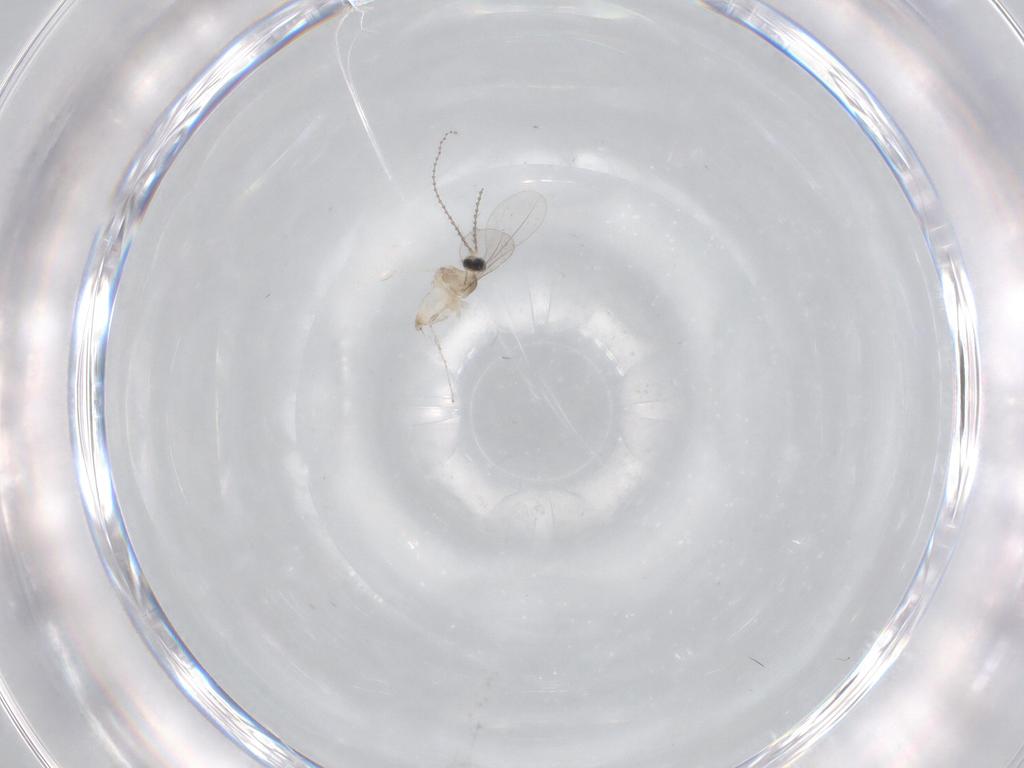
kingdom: Animalia
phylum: Arthropoda
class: Insecta
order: Diptera
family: Cecidomyiidae
